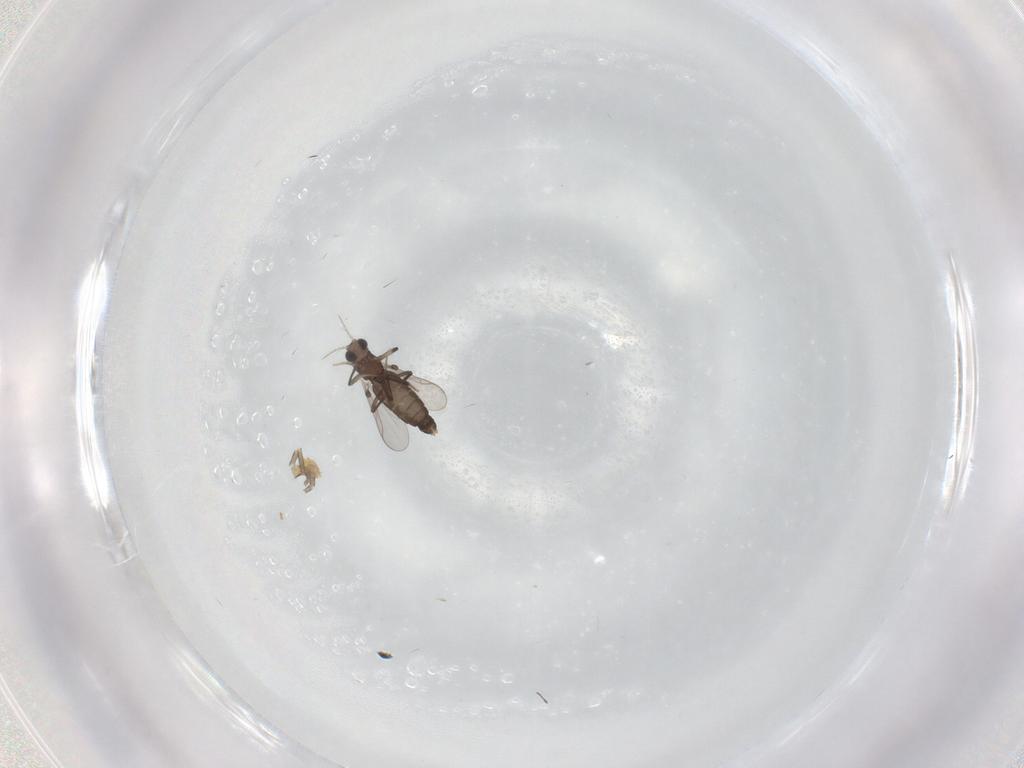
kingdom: Animalia
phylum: Arthropoda
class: Insecta
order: Diptera
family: Sciaridae
